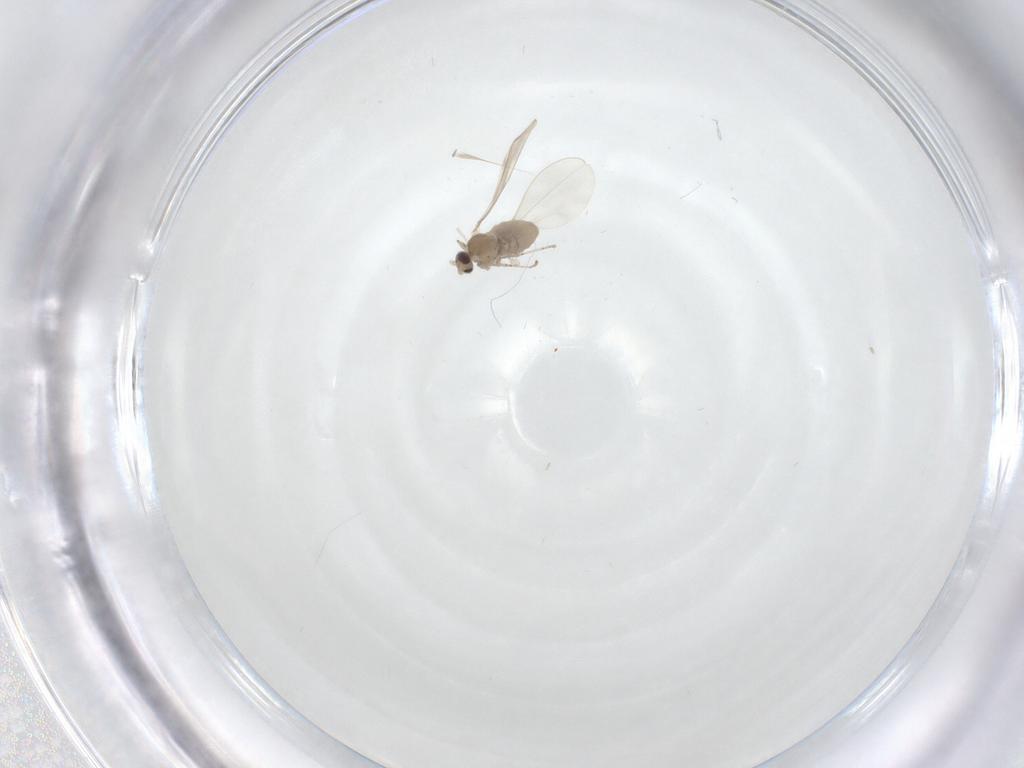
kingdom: Animalia
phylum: Arthropoda
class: Insecta
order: Diptera
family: Limoniidae
